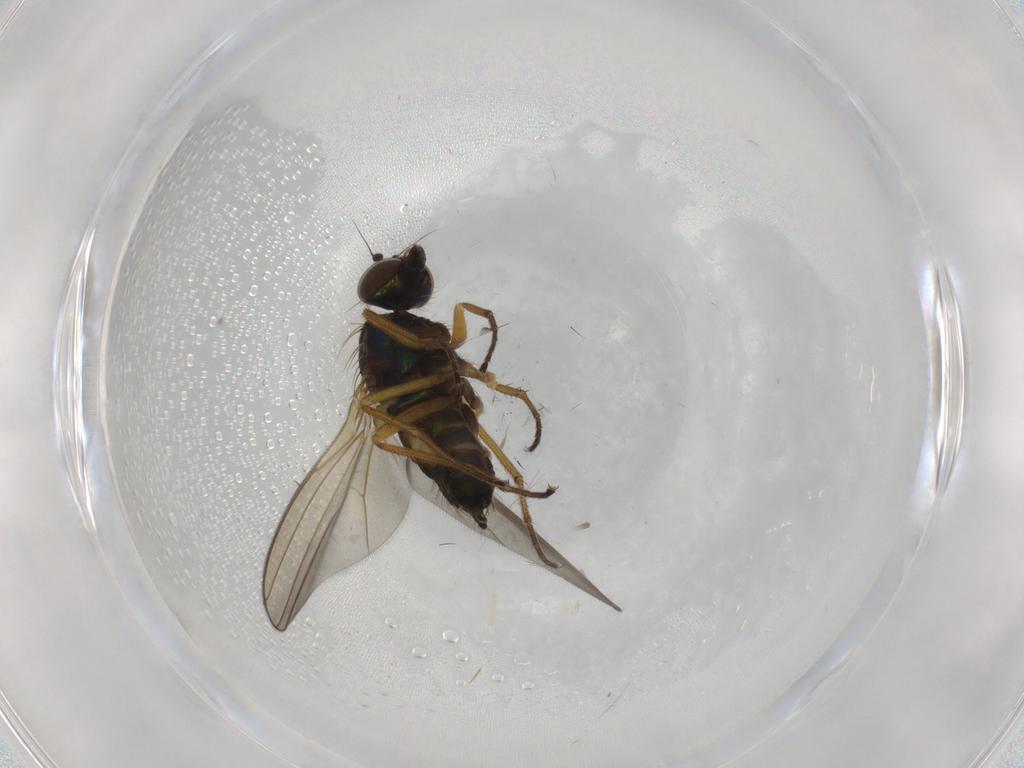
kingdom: Animalia
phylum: Arthropoda
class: Insecta
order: Diptera
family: Dolichopodidae
